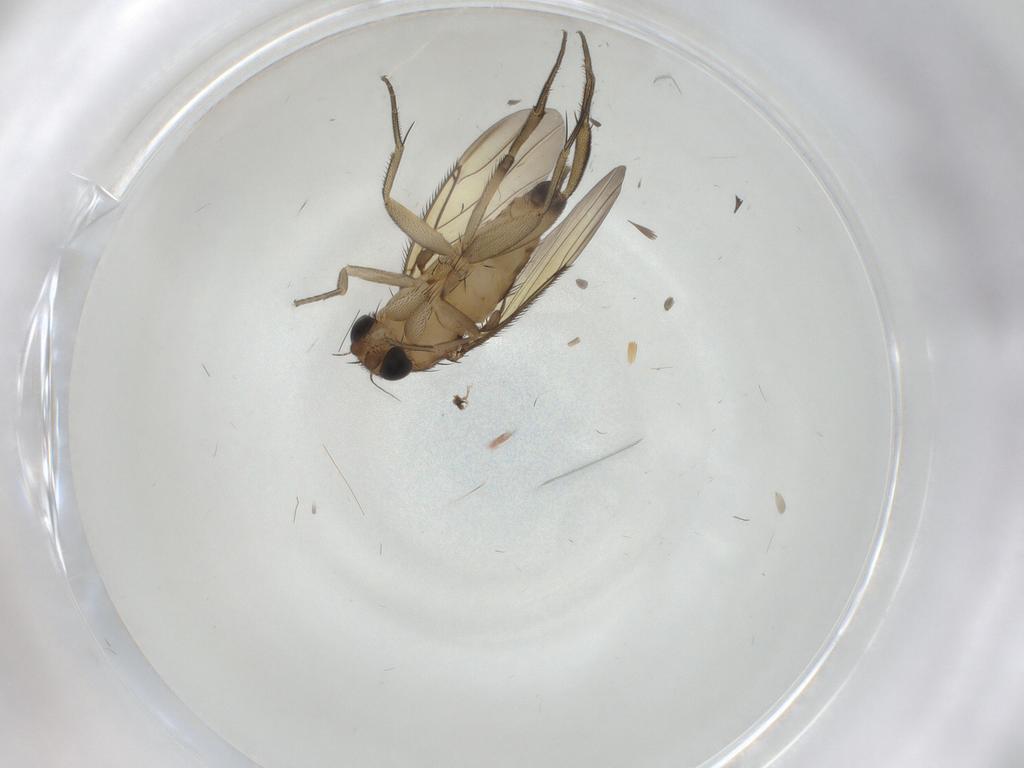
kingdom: Animalia
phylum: Arthropoda
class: Insecta
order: Diptera
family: Phoridae
